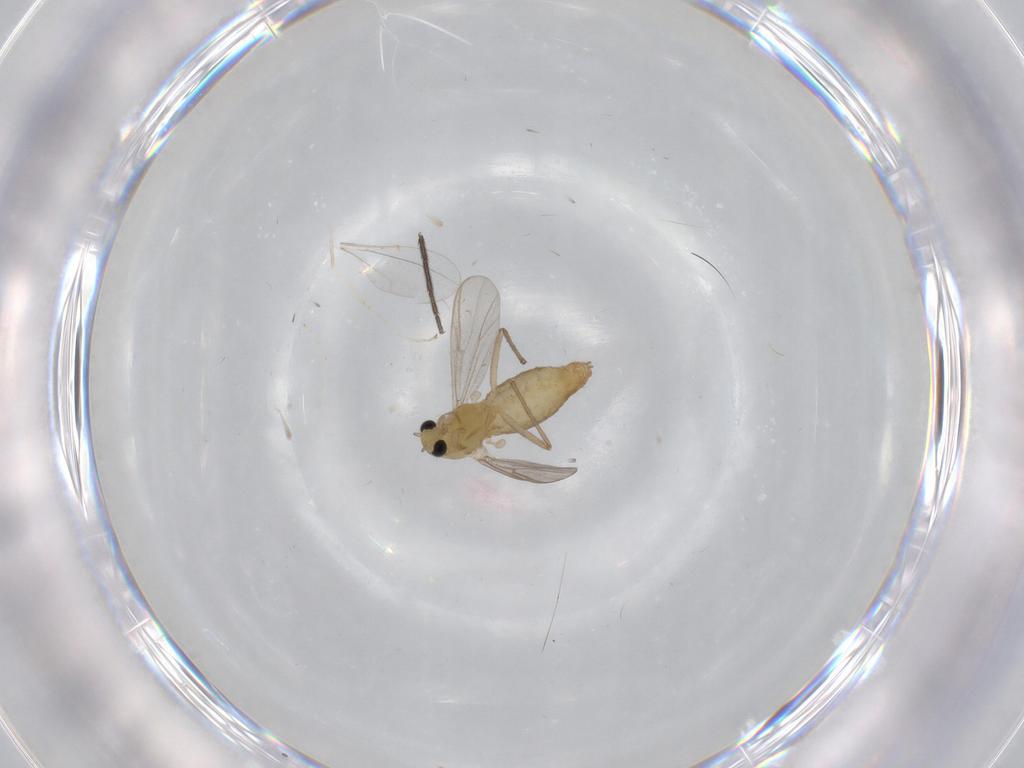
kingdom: Animalia
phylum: Arthropoda
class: Insecta
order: Diptera
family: Chironomidae
